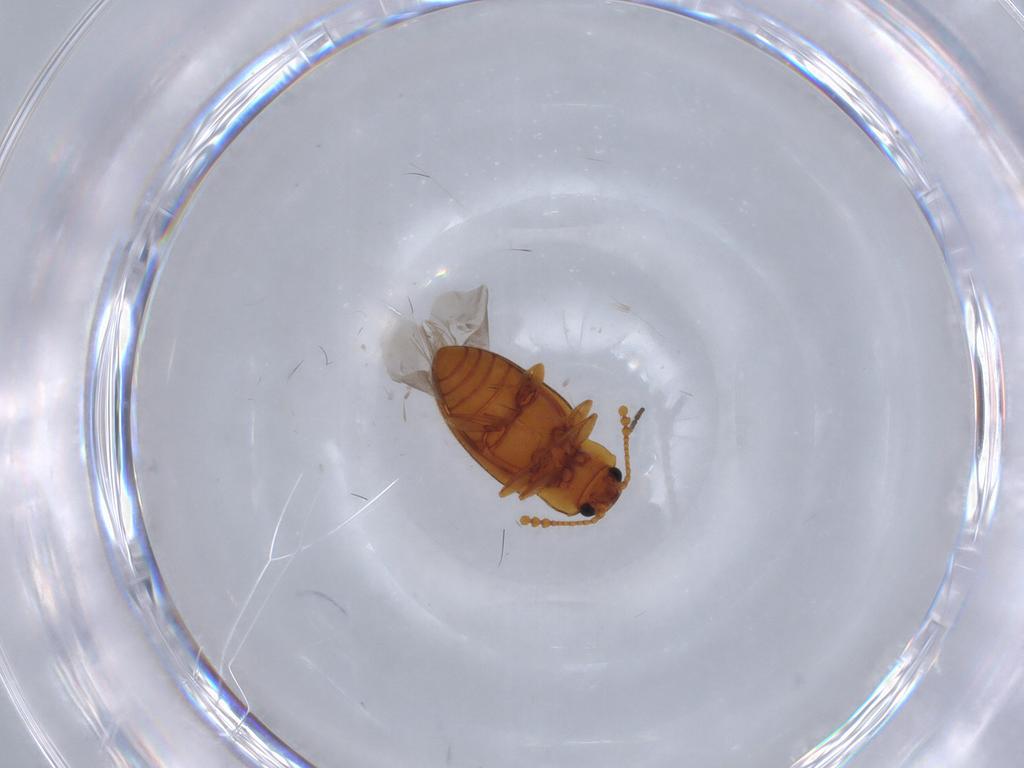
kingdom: Animalia
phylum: Arthropoda
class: Insecta
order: Coleoptera
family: Erotylidae
